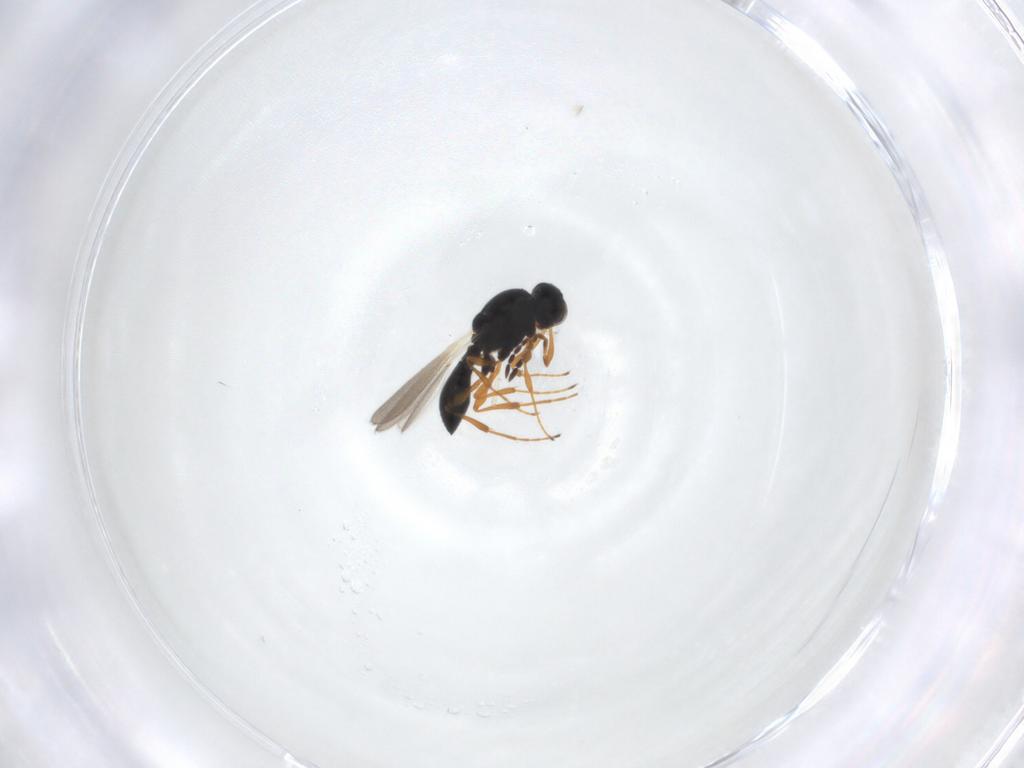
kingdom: Animalia
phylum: Arthropoda
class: Insecta
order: Hymenoptera
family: Platygastridae
